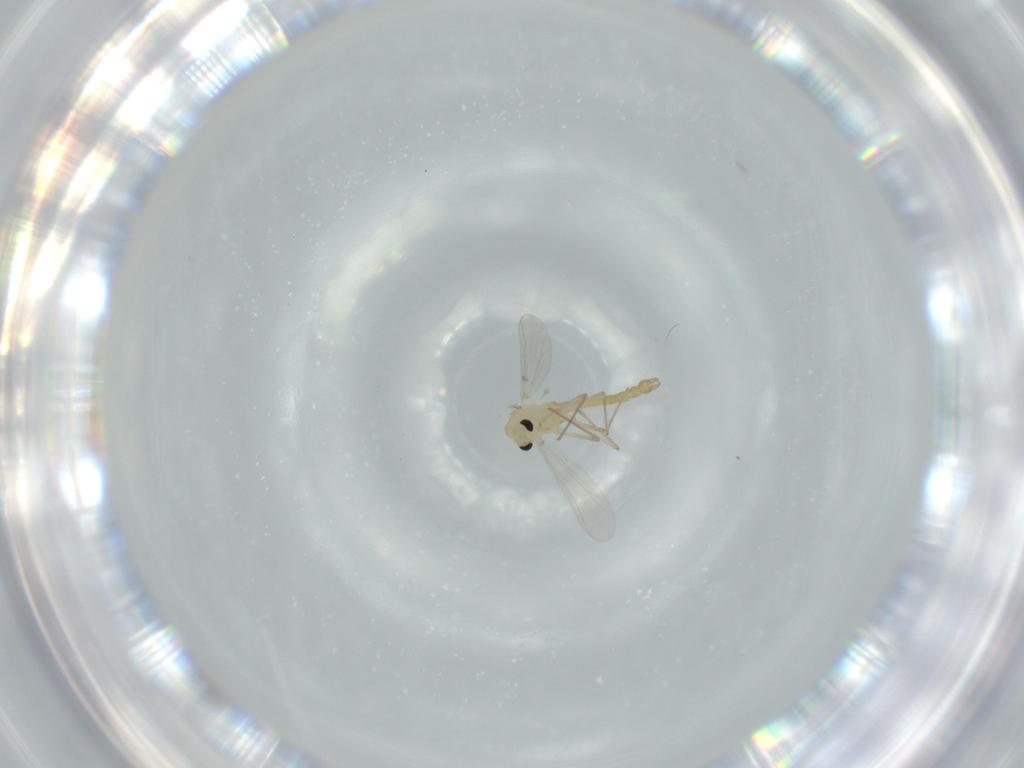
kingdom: Animalia
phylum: Arthropoda
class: Insecta
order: Diptera
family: Chironomidae
